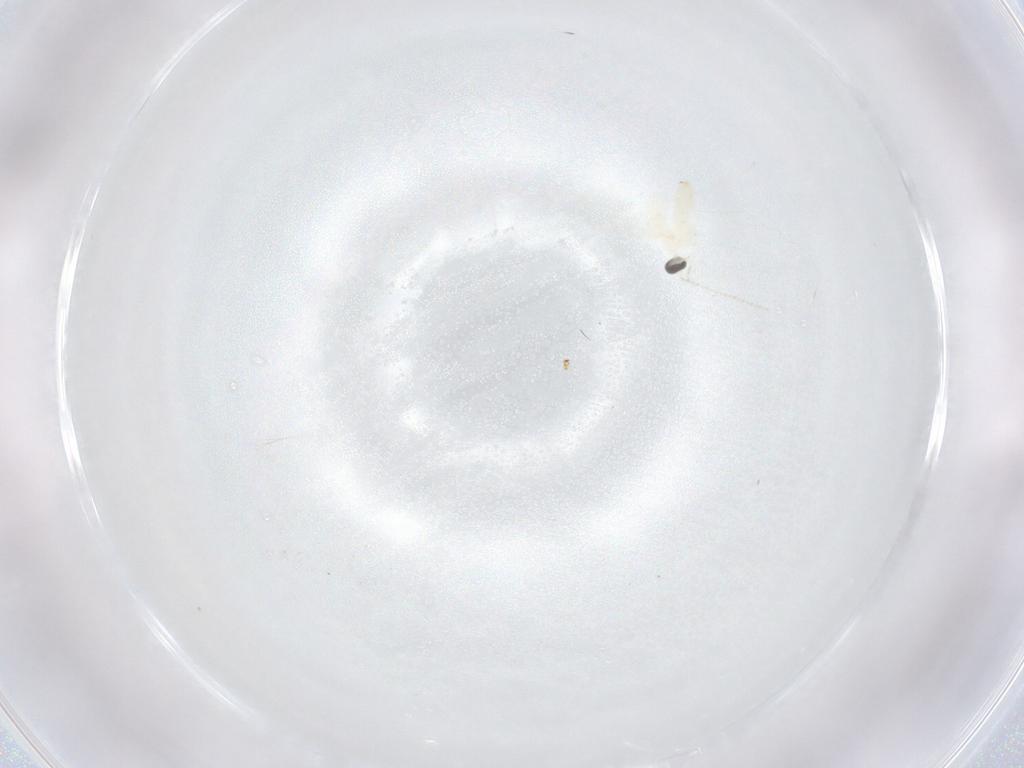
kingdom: Animalia
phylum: Arthropoda
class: Insecta
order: Diptera
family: Cecidomyiidae
